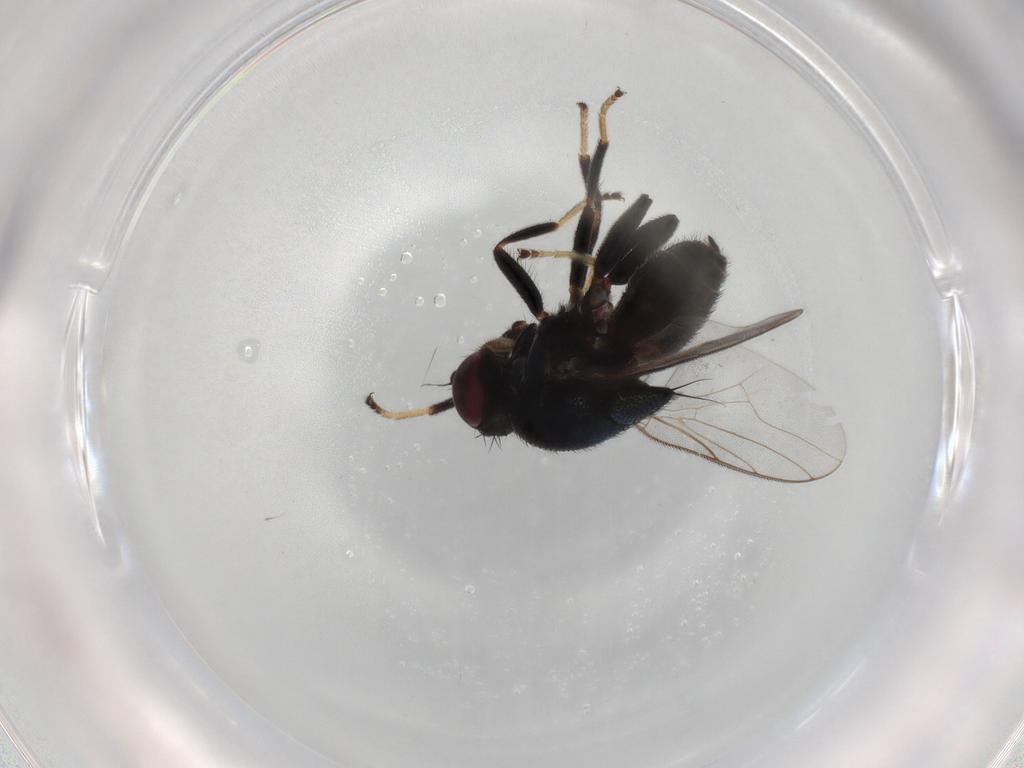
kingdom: Animalia
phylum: Arthropoda
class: Insecta
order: Diptera
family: Chloropidae
